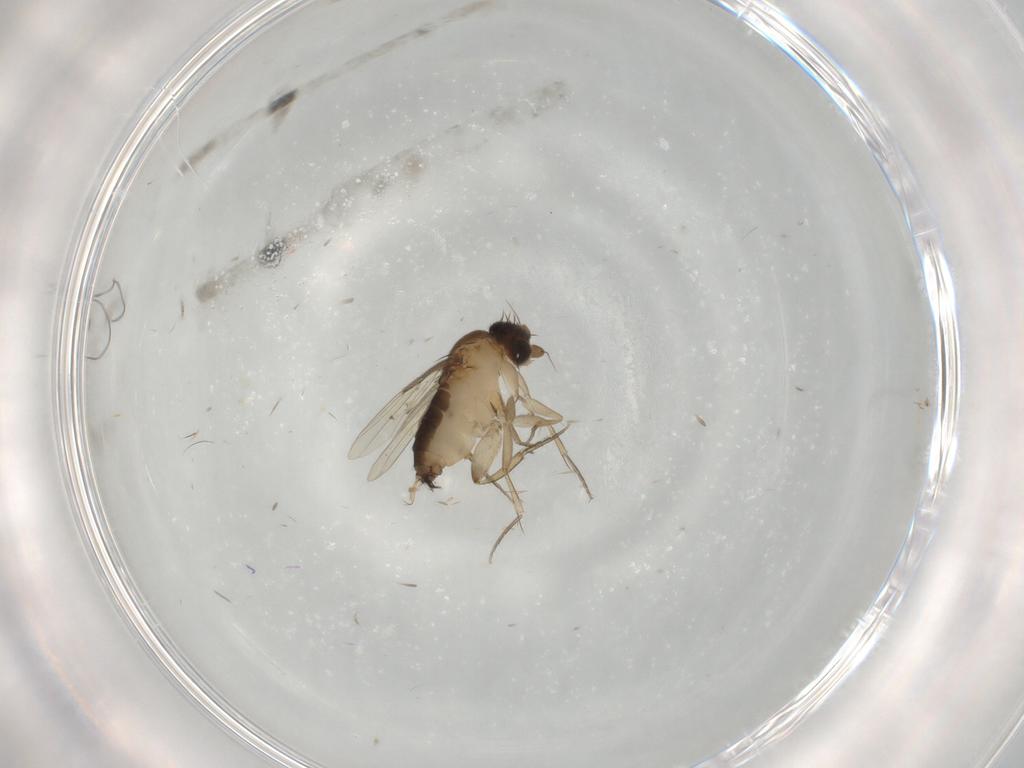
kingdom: Animalia
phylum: Arthropoda
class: Insecta
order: Diptera
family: Phoridae
